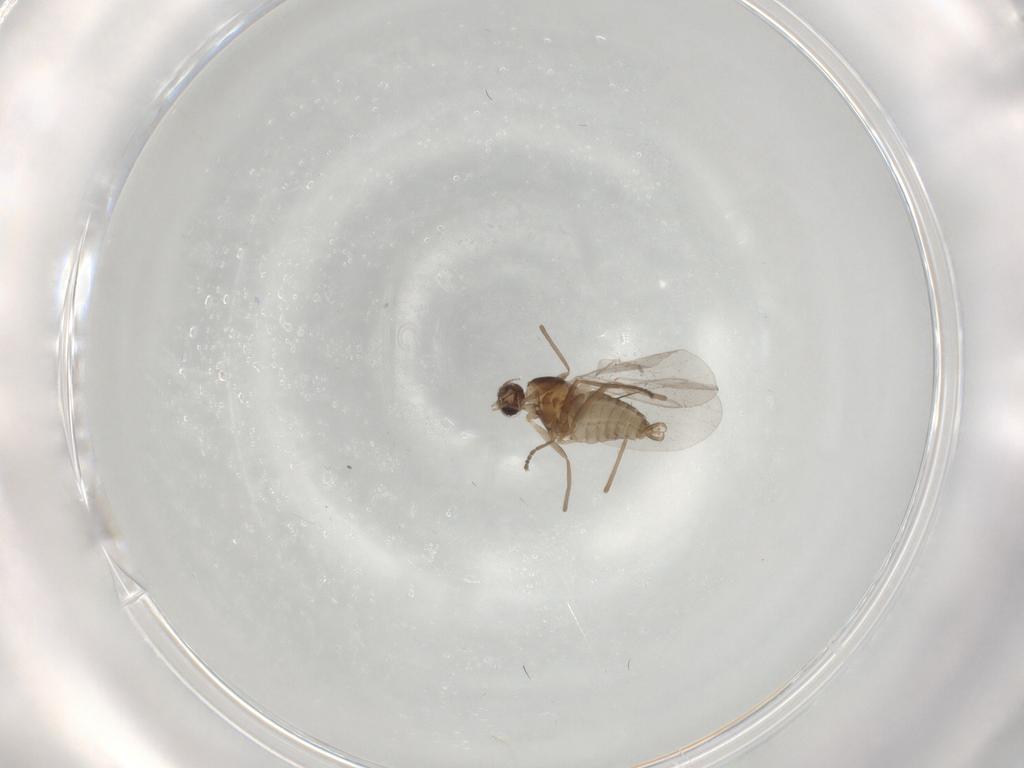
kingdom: Animalia
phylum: Arthropoda
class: Insecta
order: Diptera
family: Cecidomyiidae
